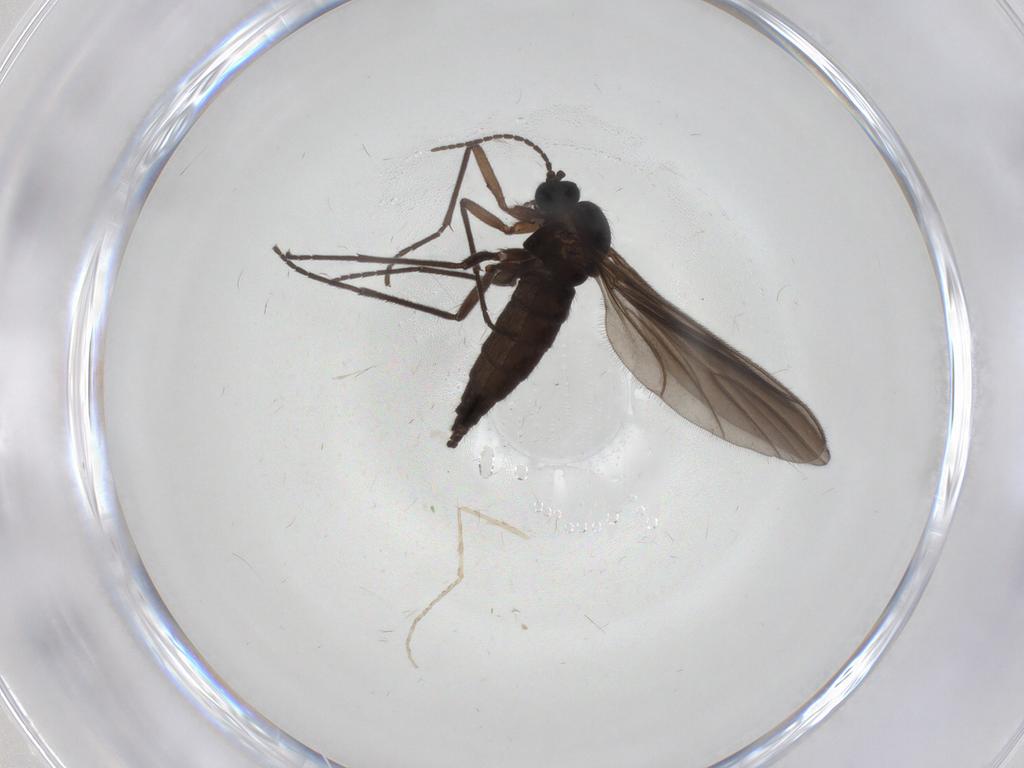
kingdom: Animalia
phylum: Arthropoda
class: Insecta
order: Diptera
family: Sciaridae
